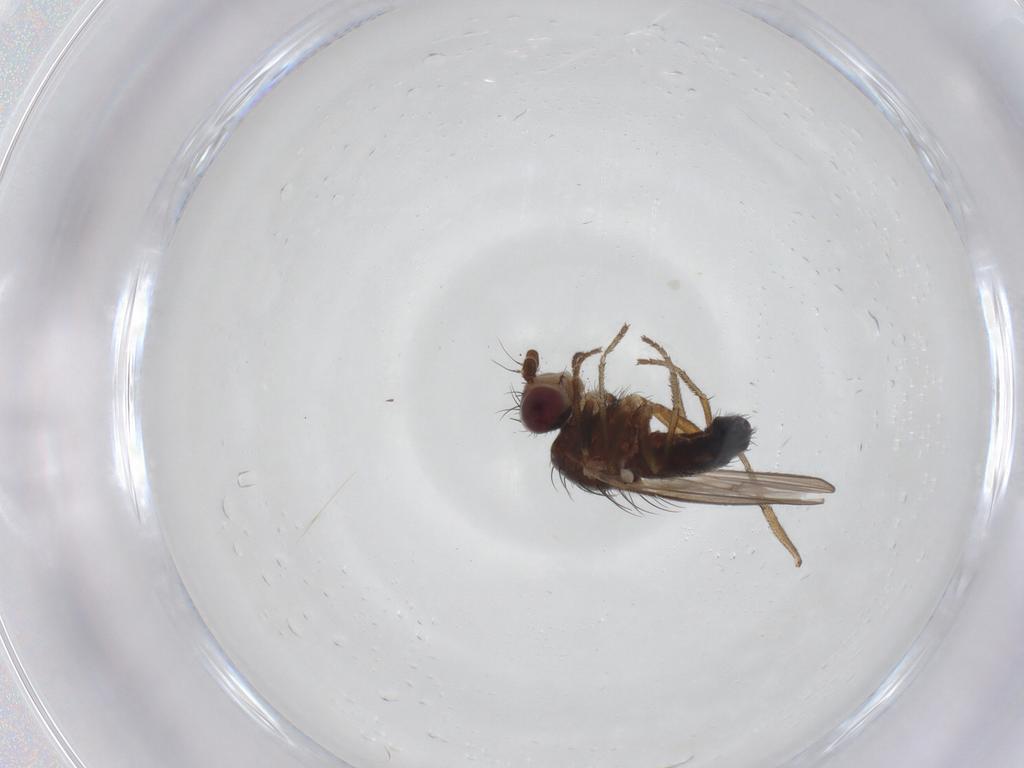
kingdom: Animalia
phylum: Arthropoda
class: Insecta
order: Diptera
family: Heleomyzidae
